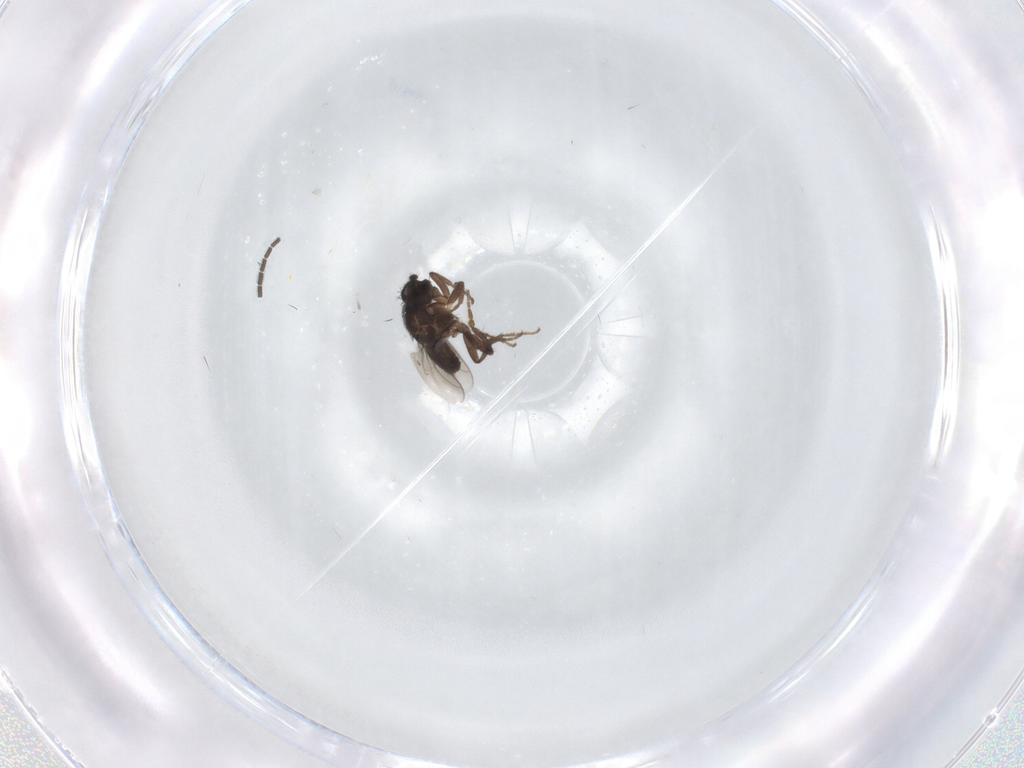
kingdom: Animalia
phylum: Arthropoda
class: Insecta
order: Diptera
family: Sciaridae
